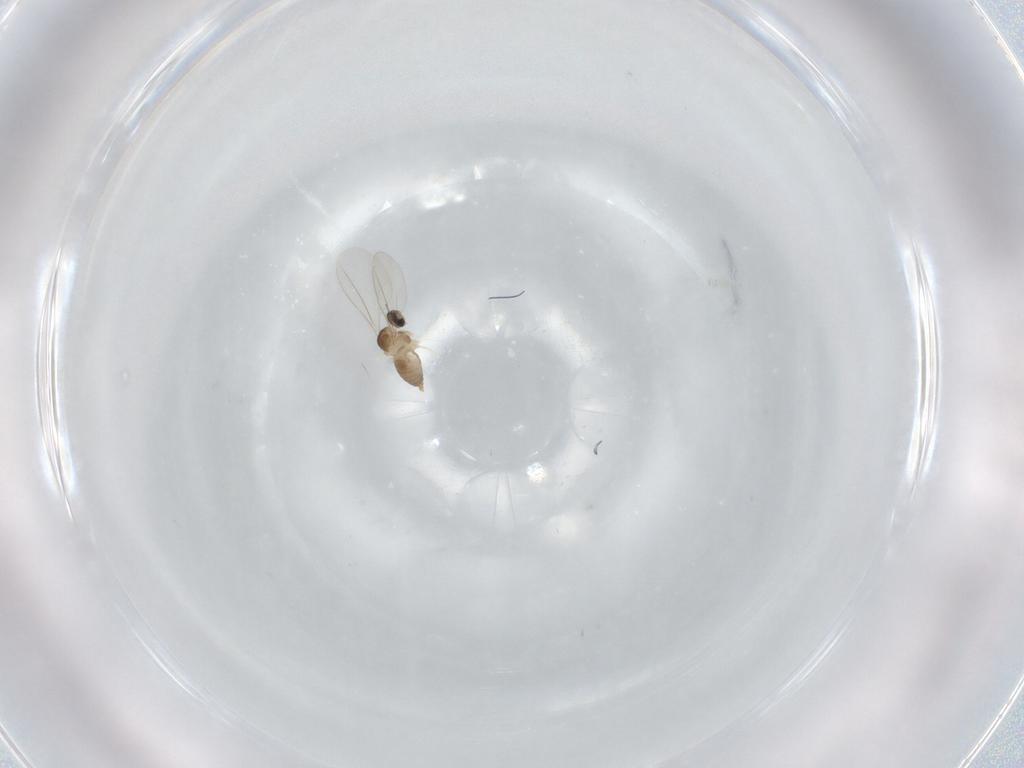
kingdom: Animalia
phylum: Arthropoda
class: Insecta
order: Diptera
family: Cecidomyiidae
